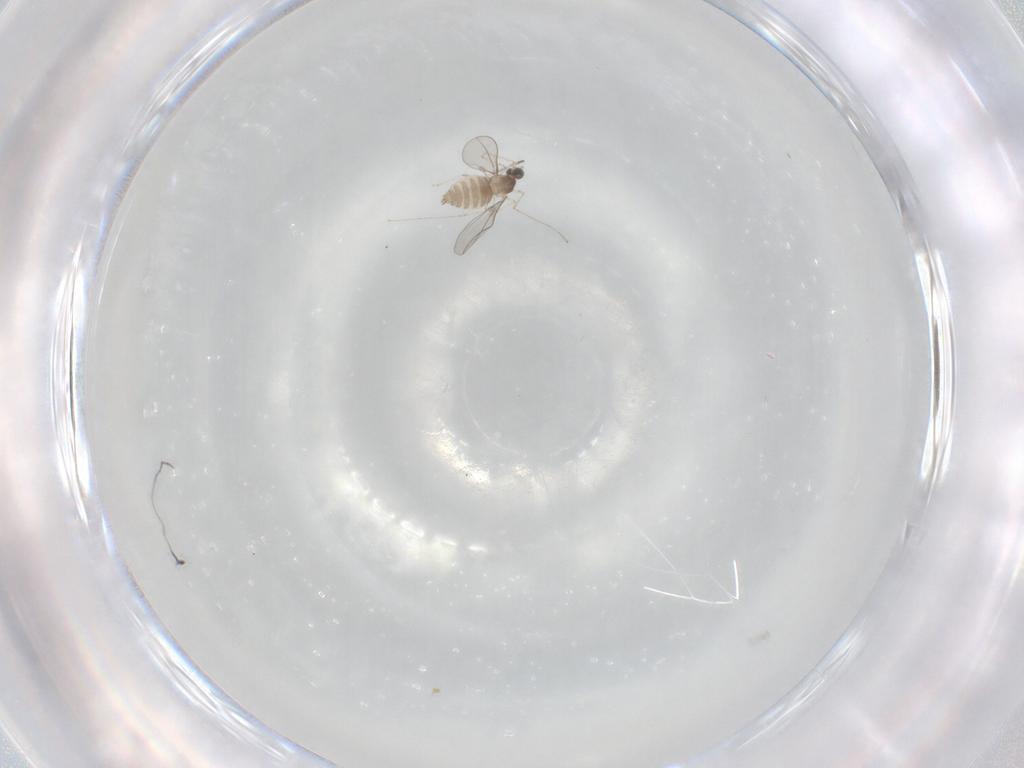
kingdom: Animalia
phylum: Arthropoda
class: Insecta
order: Diptera
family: Cecidomyiidae
